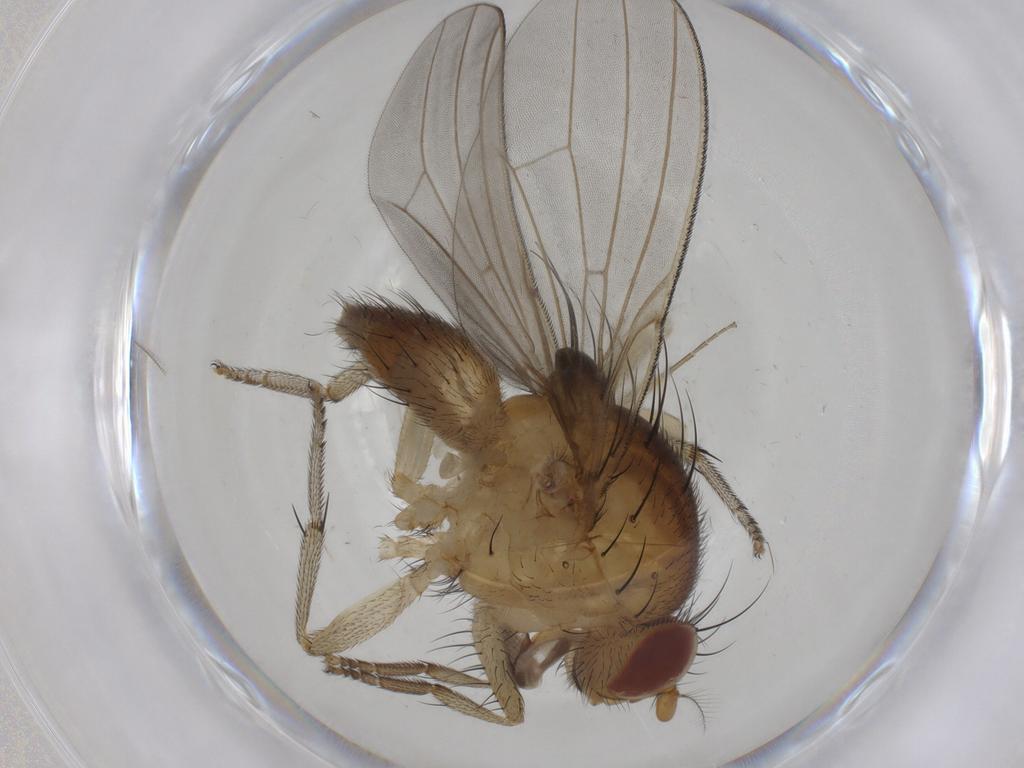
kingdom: Animalia
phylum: Arthropoda
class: Insecta
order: Diptera
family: Chironomidae
